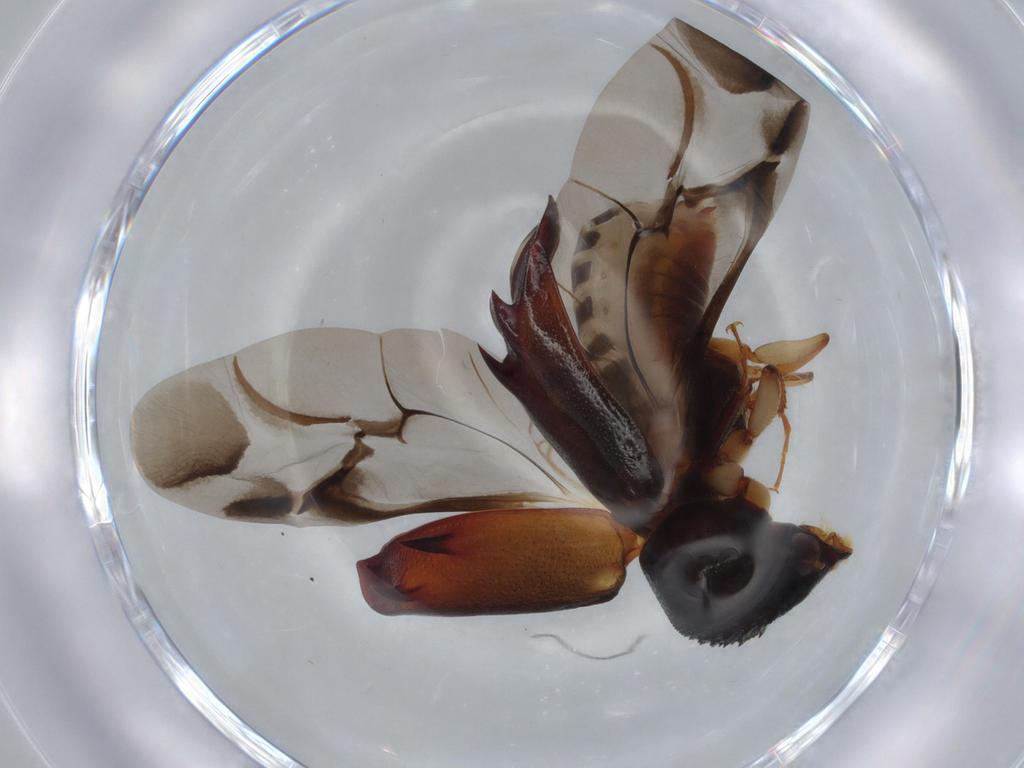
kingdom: Animalia
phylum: Arthropoda
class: Insecta
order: Coleoptera
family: Bostrichidae
